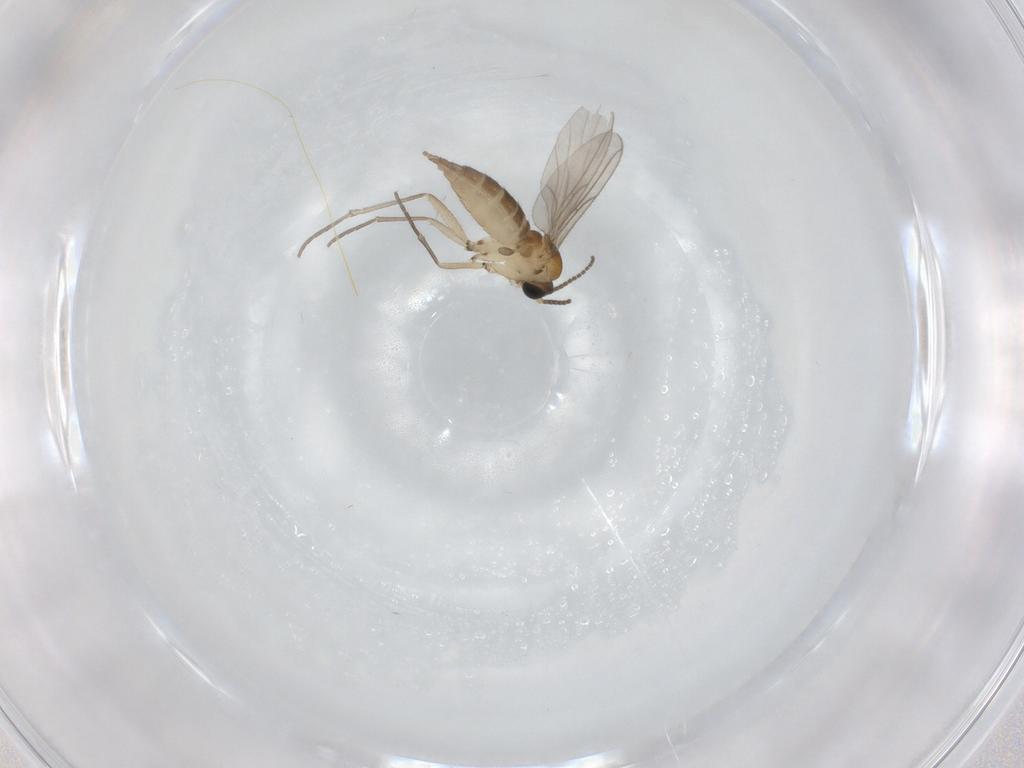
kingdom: Animalia
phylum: Arthropoda
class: Insecta
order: Diptera
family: Sciaridae
